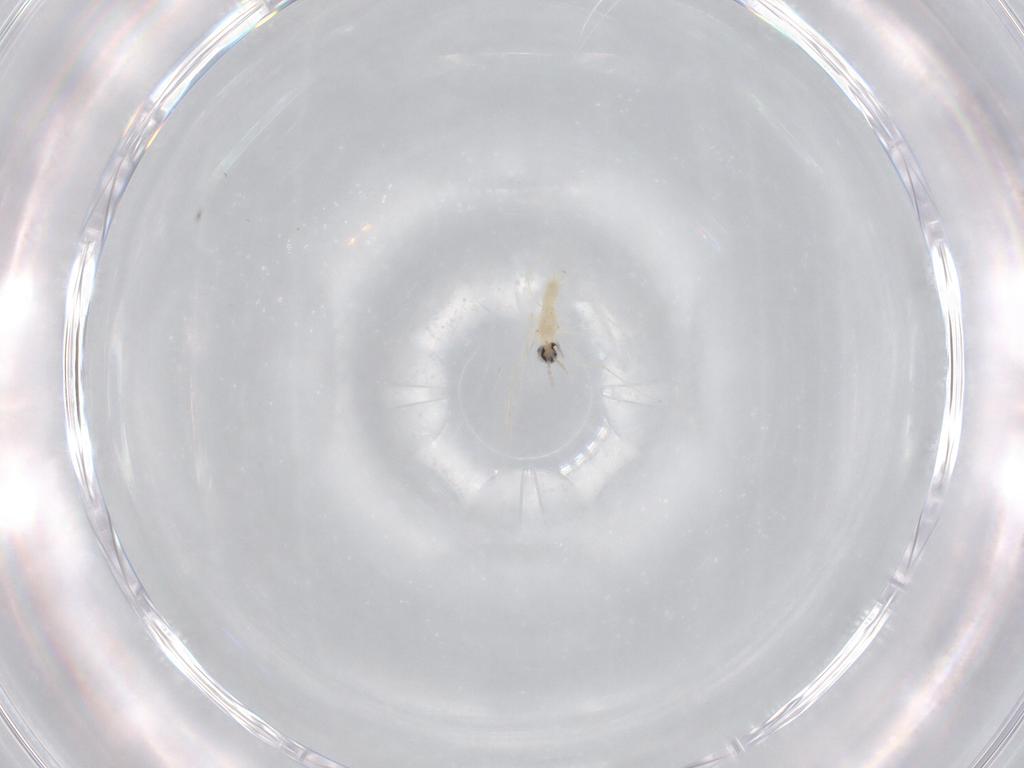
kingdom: Animalia
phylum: Arthropoda
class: Insecta
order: Diptera
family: Cecidomyiidae
